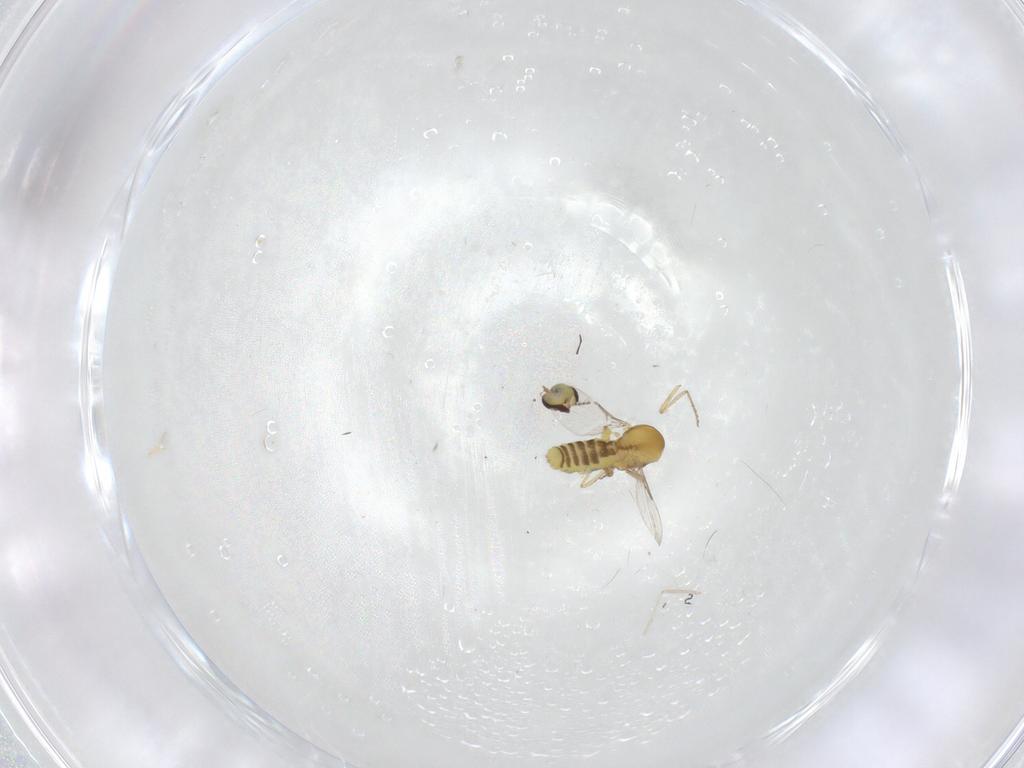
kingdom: Animalia
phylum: Arthropoda
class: Insecta
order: Diptera
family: Ceratopogonidae
